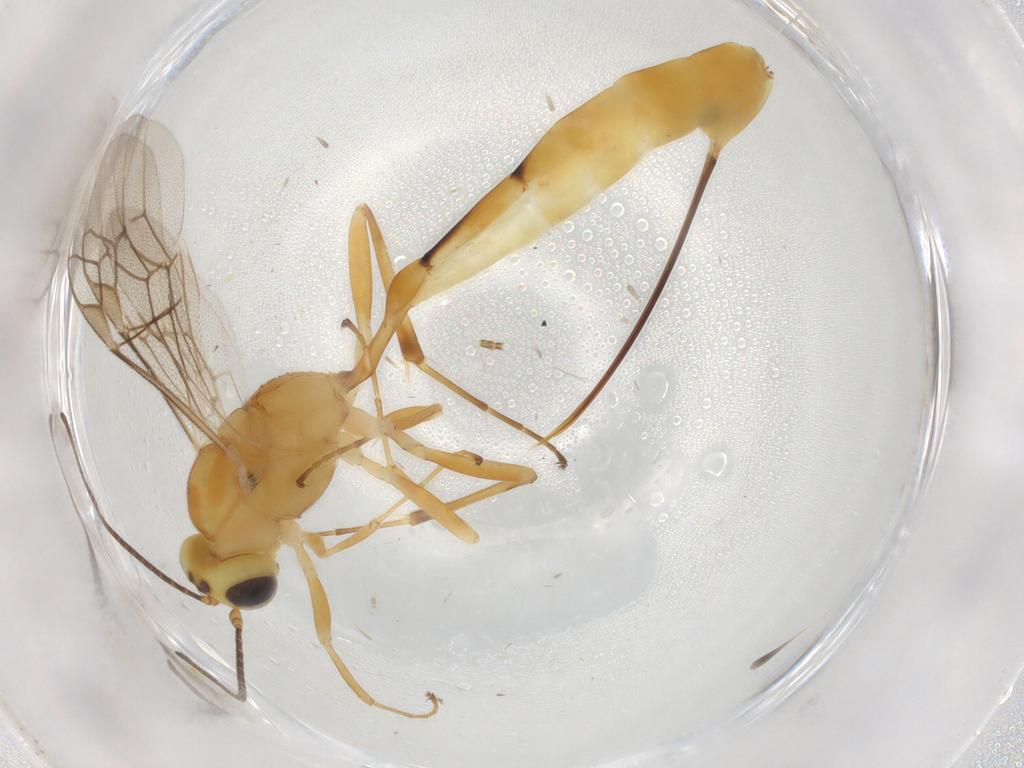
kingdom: Animalia
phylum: Arthropoda
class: Insecta
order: Hymenoptera
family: Ichneumonidae
